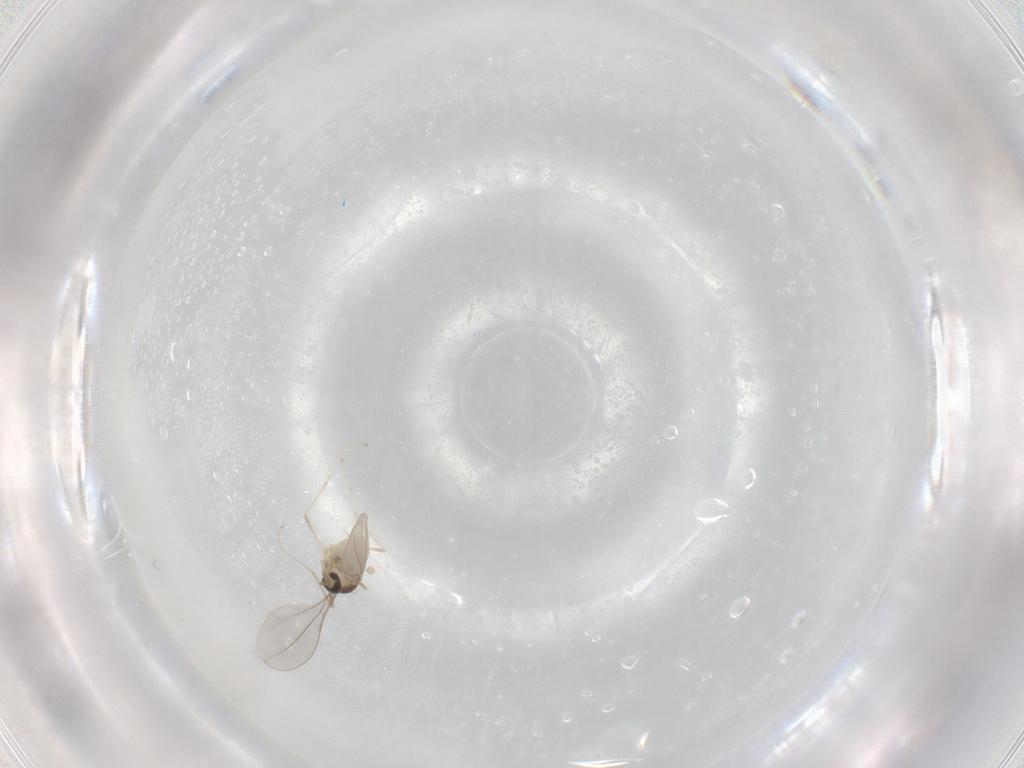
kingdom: Animalia
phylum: Arthropoda
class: Insecta
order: Diptera
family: Cecidomyiidae
